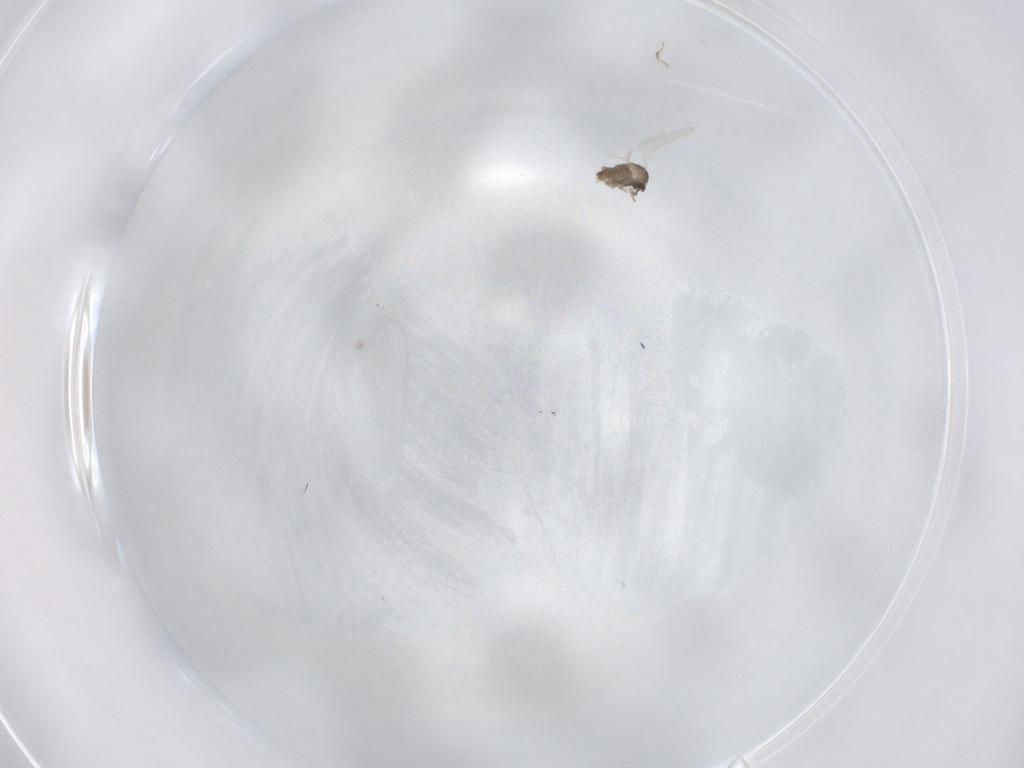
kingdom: Animalia
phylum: Arthropoda
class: Insecta
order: Diptera
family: Cecidomyiidae
